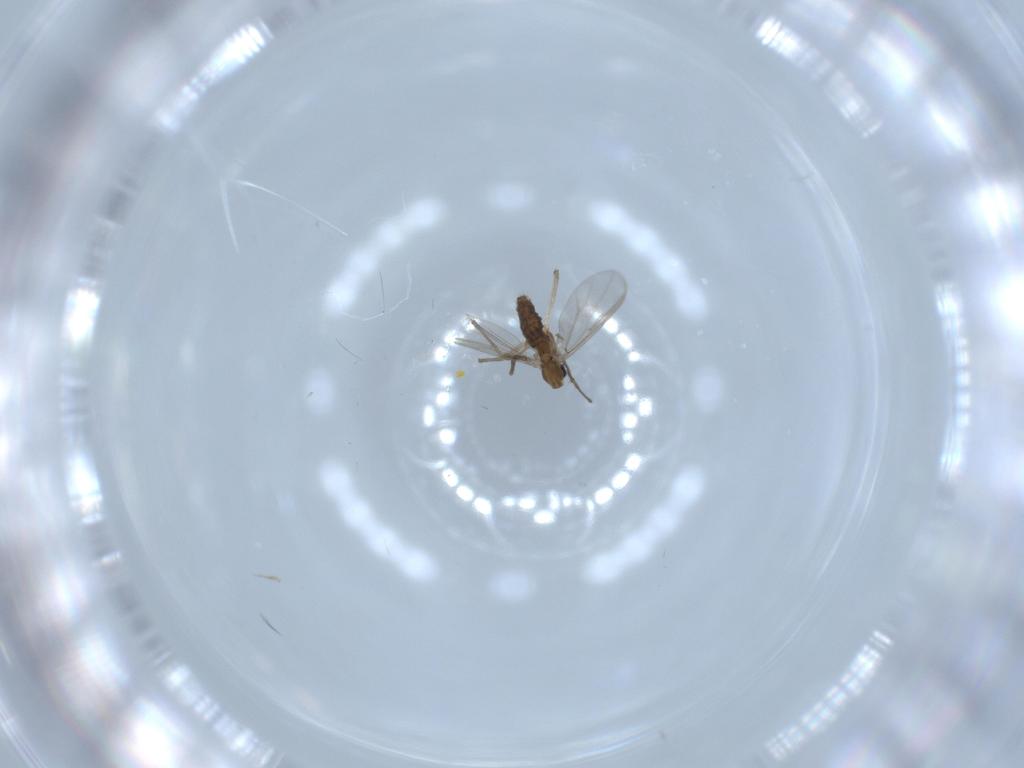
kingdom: Animalia
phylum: Arthropoda
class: Insecta
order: Diptera
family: Chironomidae
